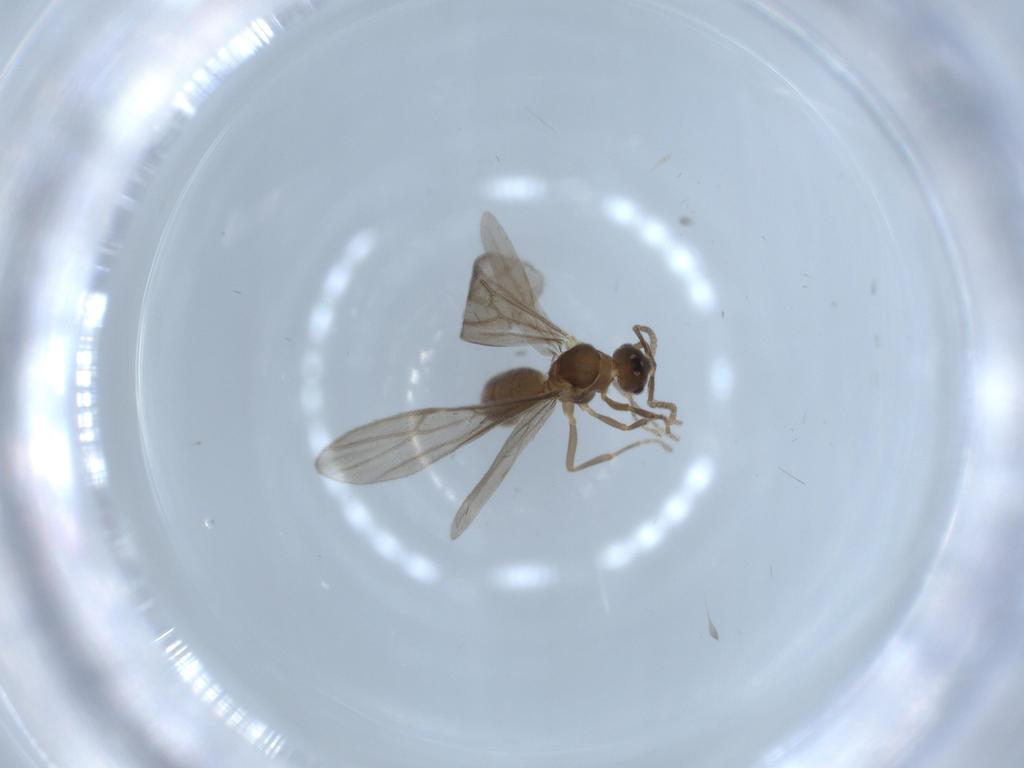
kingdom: Animalia
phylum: Arthropoda
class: Insecta
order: Hymenoptera
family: Formicidae
